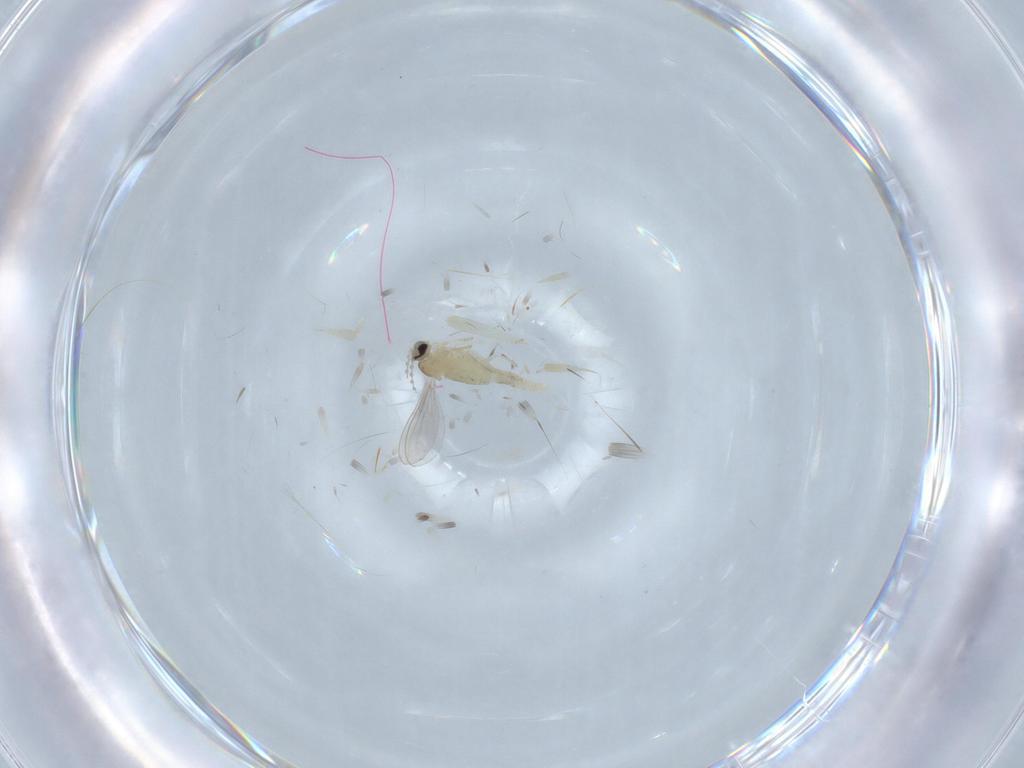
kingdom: Animalia
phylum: Arthropoda
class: Insecta
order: Diptera
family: Cecidomyiidae
